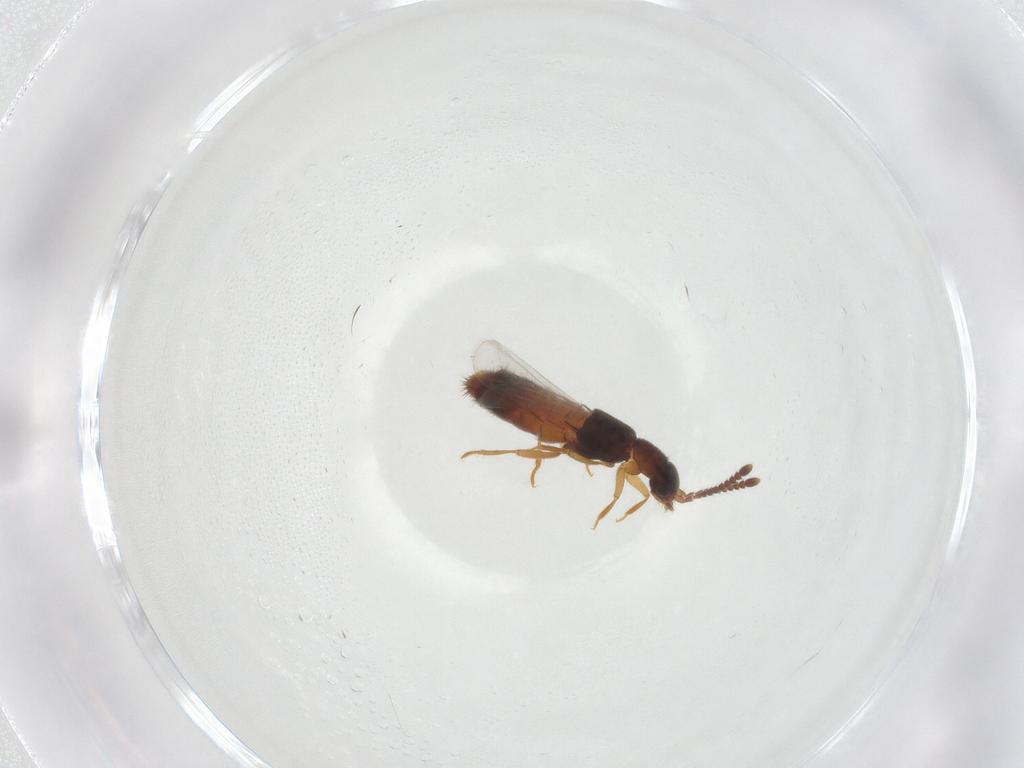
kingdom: Animalia
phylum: Arthropoda
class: Insecta
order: Coleoptera
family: Staphylinidae
